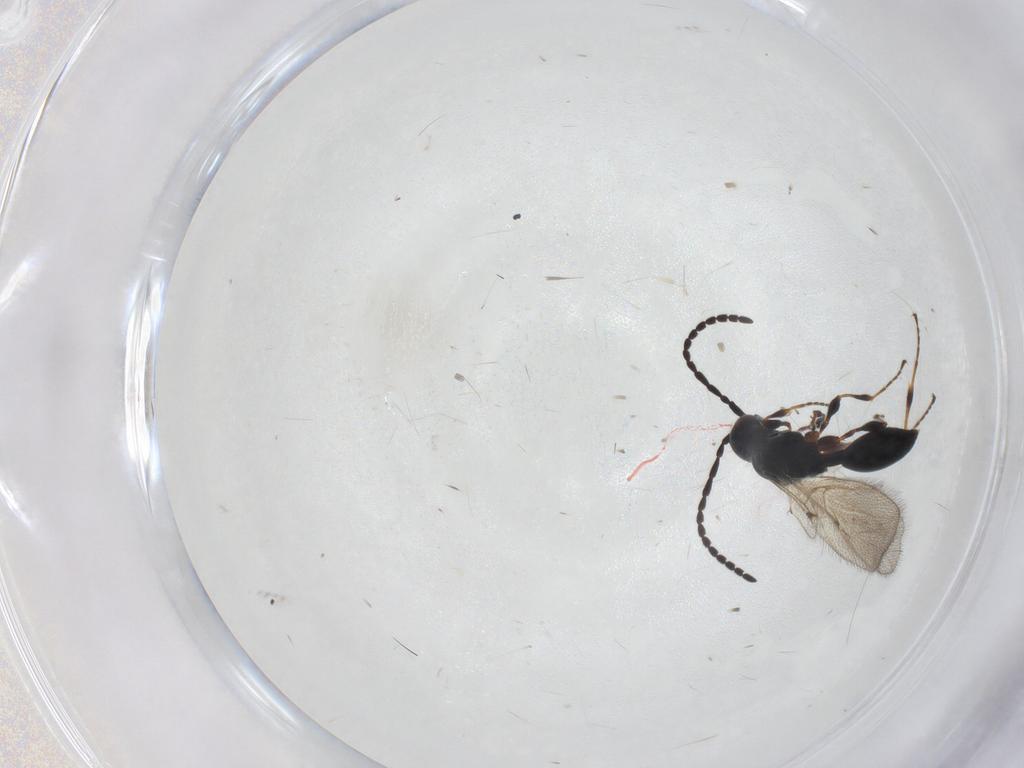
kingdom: Animalia
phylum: Arthropoda
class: Insecta
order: Hymenoptera
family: Diapriidae
